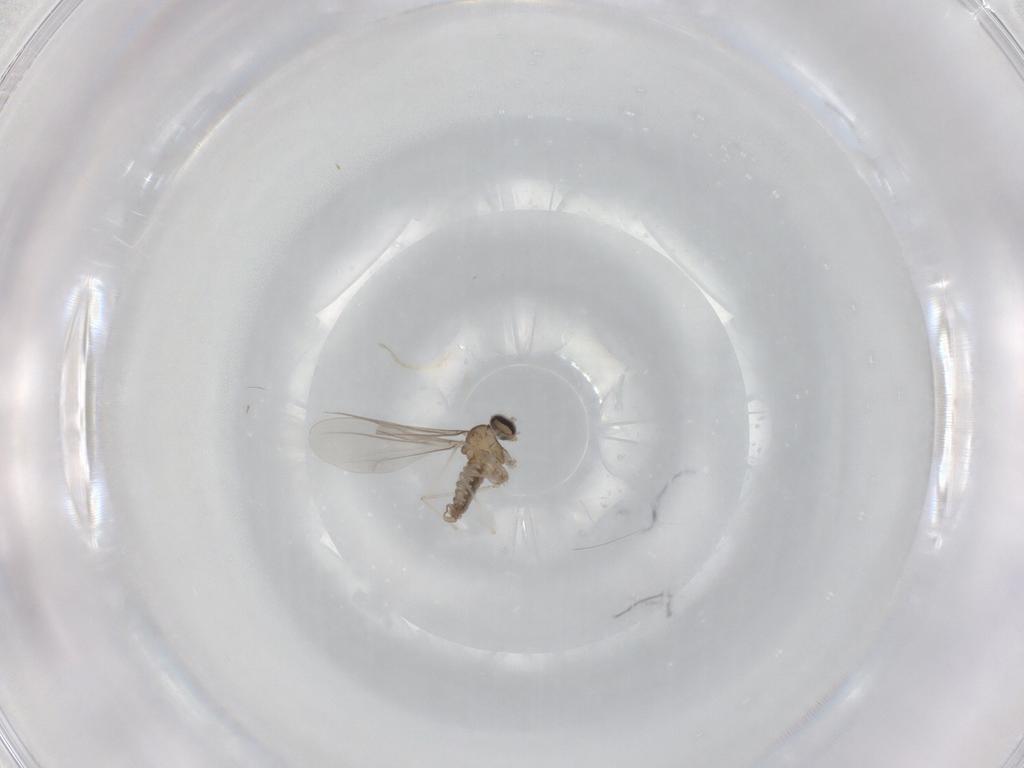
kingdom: Animalia
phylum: Arthropoda
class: Insecta
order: Diptera
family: Cecidomyiidae
